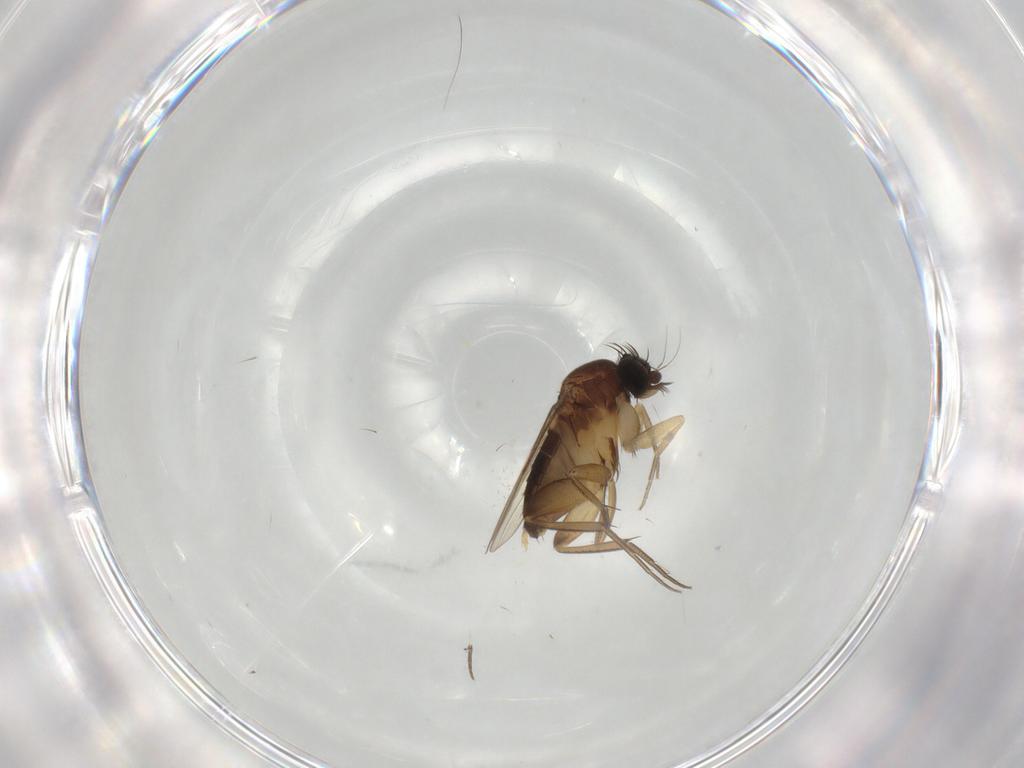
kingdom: Animalia
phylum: Arthropoda
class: Insecta
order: Diptera
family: Phoridae
